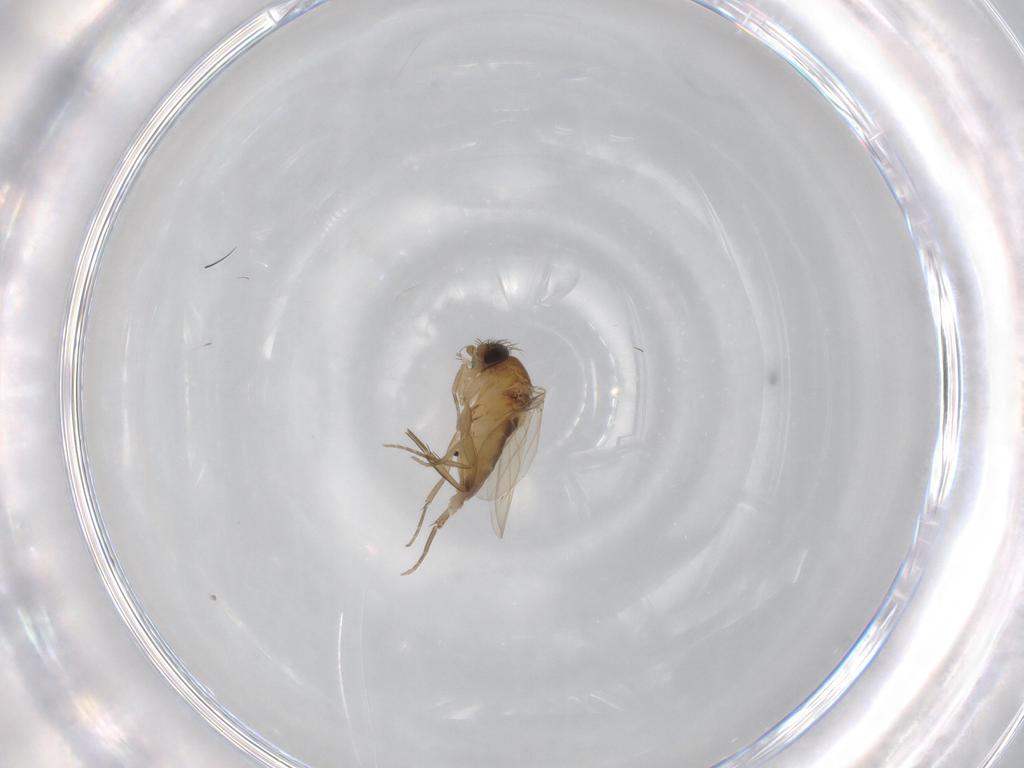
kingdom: Animalia
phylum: Arthropoda
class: Insecta
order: Diptera
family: Phoridae
